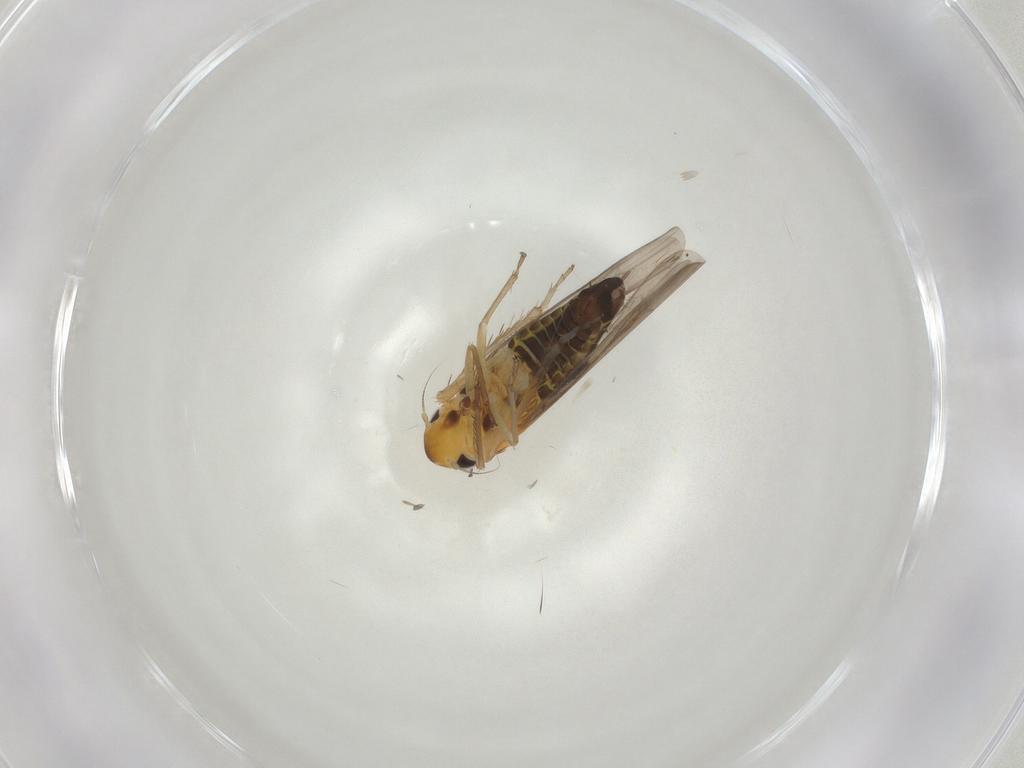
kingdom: Animalia
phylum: Arthropoda
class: Insecta
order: Hemiptera
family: Cicadellidae
